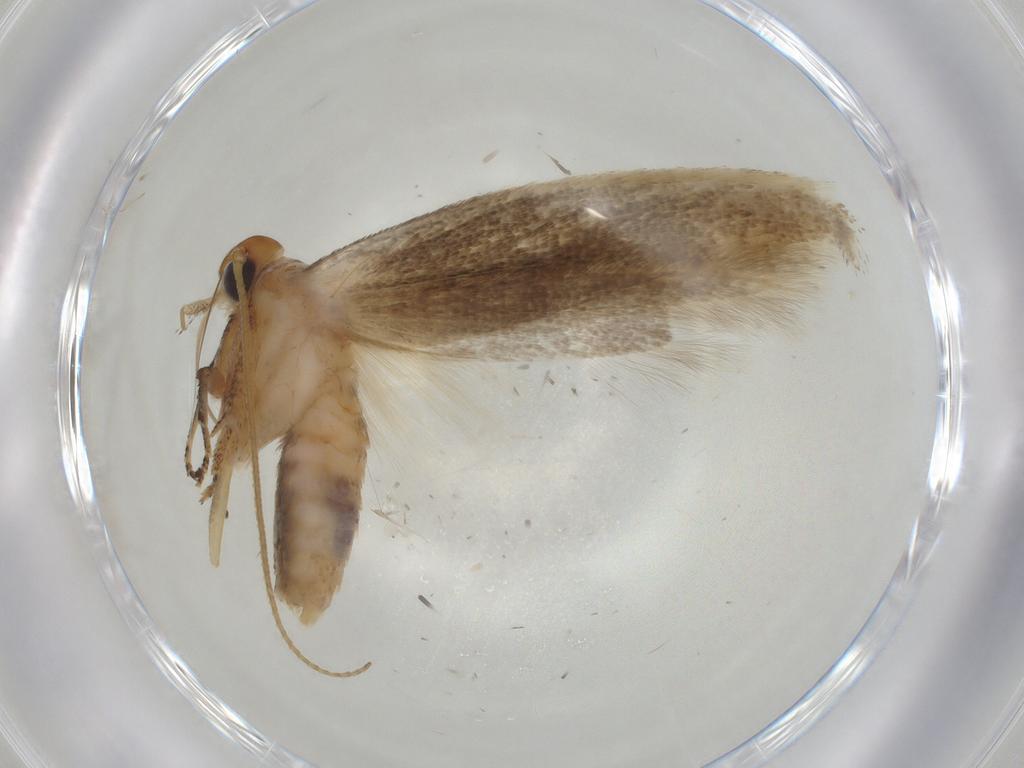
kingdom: Animalia
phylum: Arthropoda
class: Insecta
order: Lepidoptera
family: Gelechiidae
